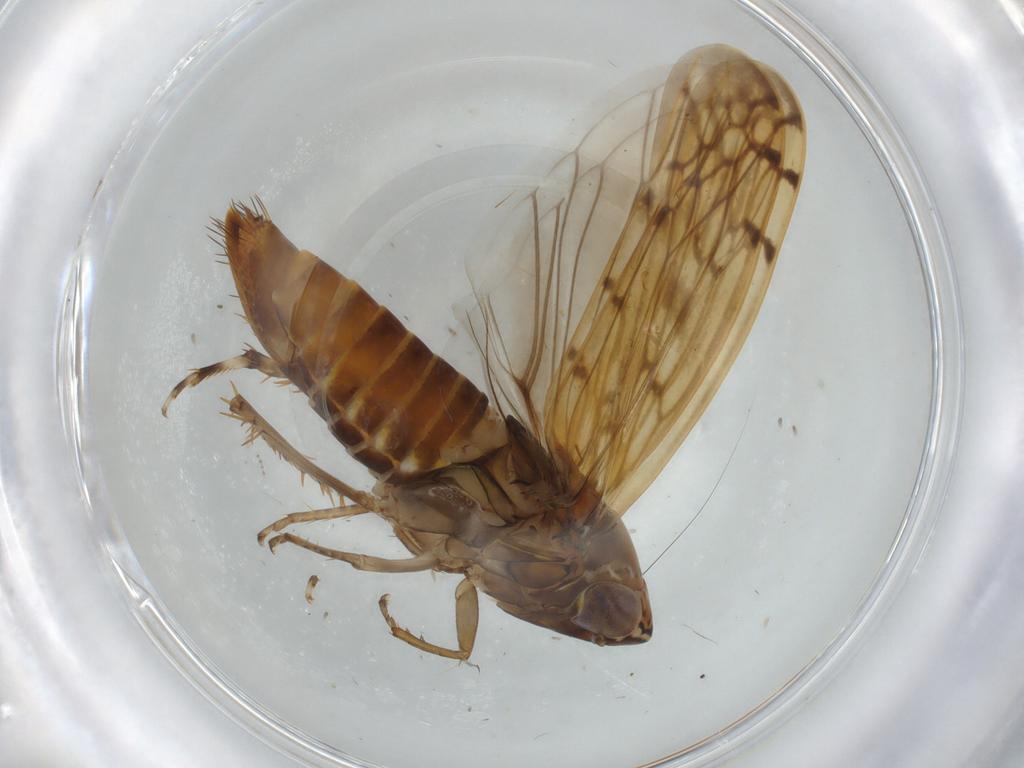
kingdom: Animalia
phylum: Arthropoda
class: Insecta
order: Hemiptera
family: Cicadellidae
